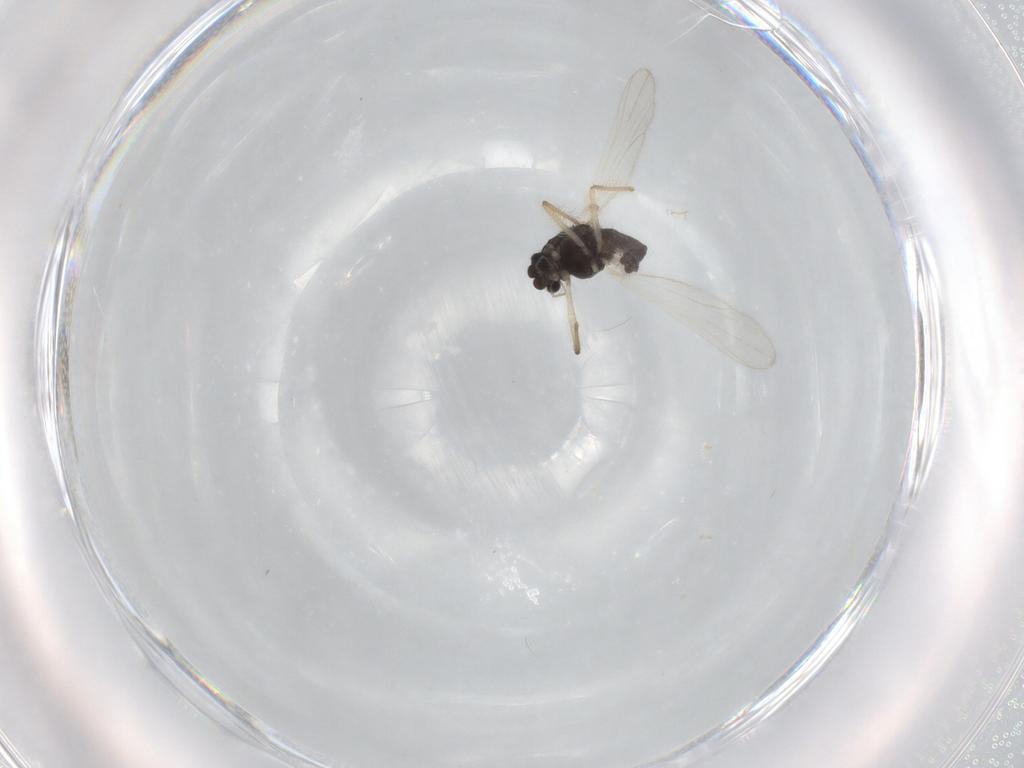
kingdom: Animalia
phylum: Arthropoda
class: Insecta
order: Diptera
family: Chironomidae
